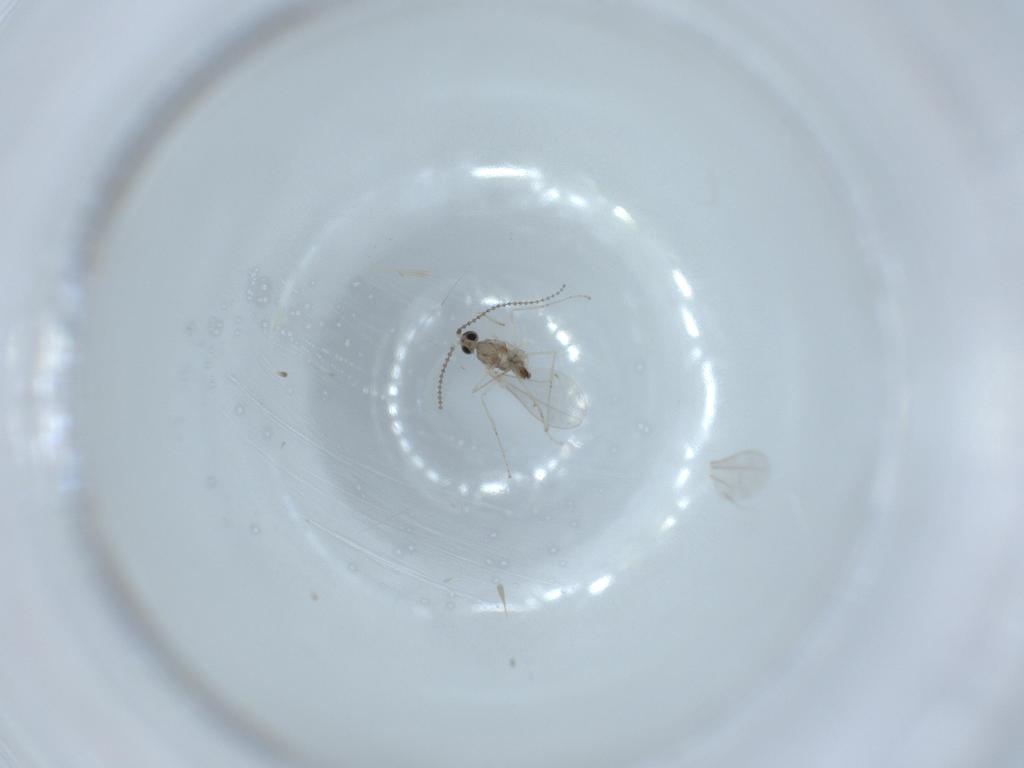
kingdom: Animalia
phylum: Arthropoda
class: Insecta
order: Diptera
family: Cecidomyiidae
